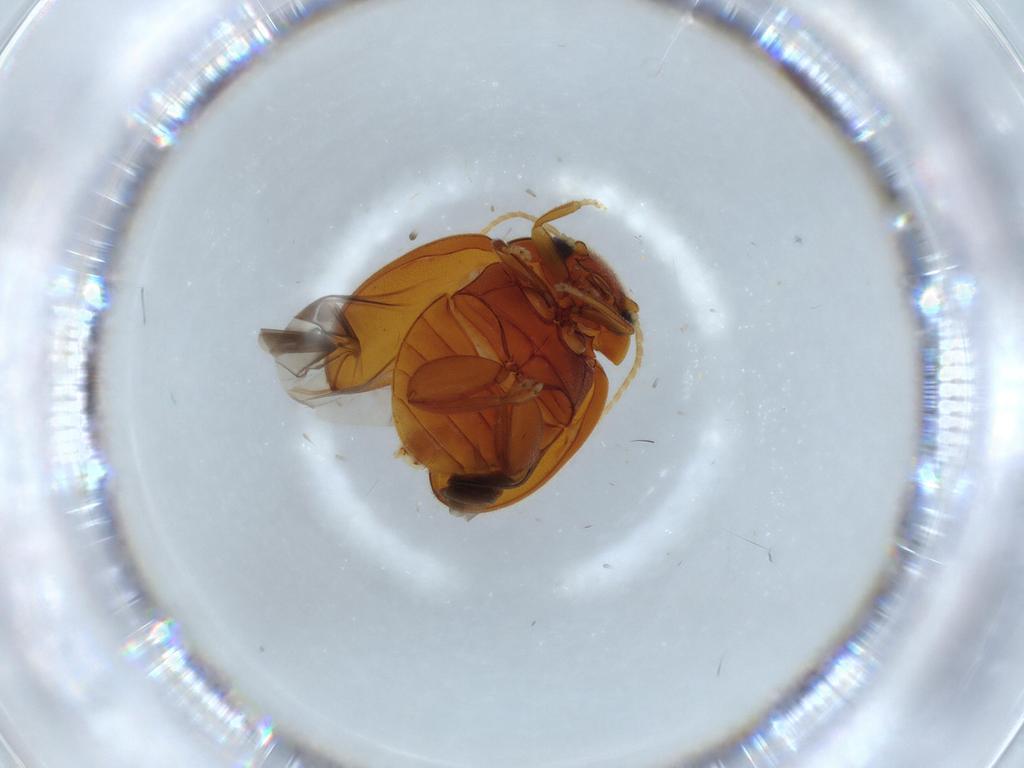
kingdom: Animalia
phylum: Arthropoda
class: Insecta
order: Coleoptera
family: Scirtidae
